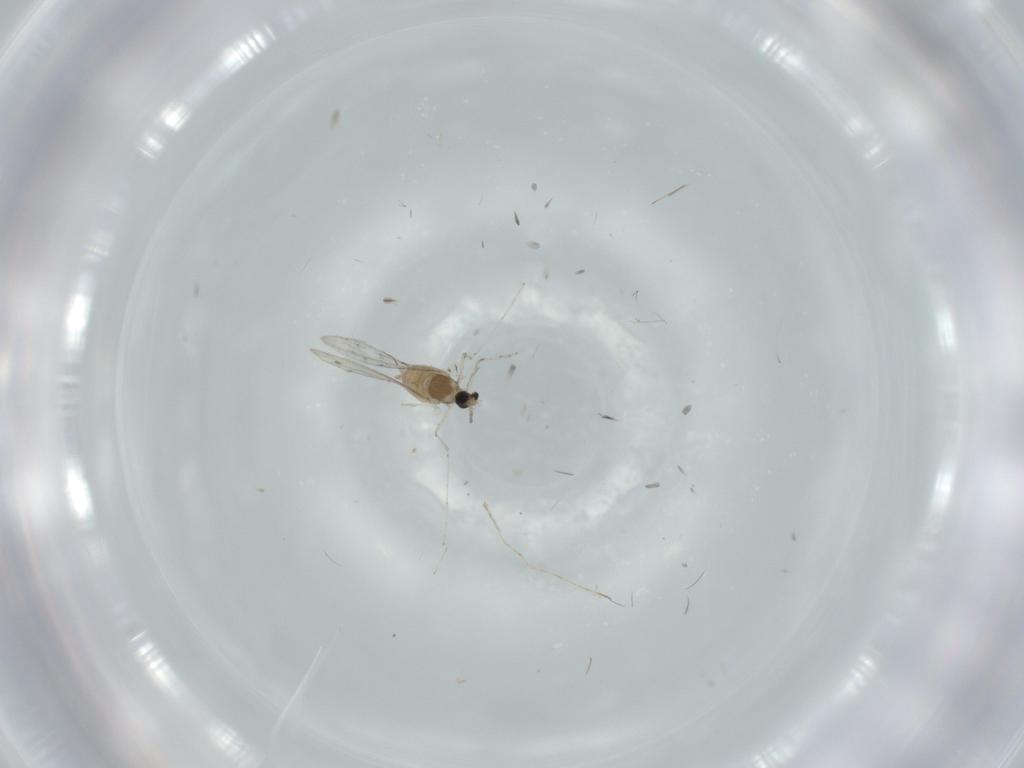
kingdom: Animalia
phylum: Arthropoda
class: Insecta
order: Diptera
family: Cecidomyiidae
